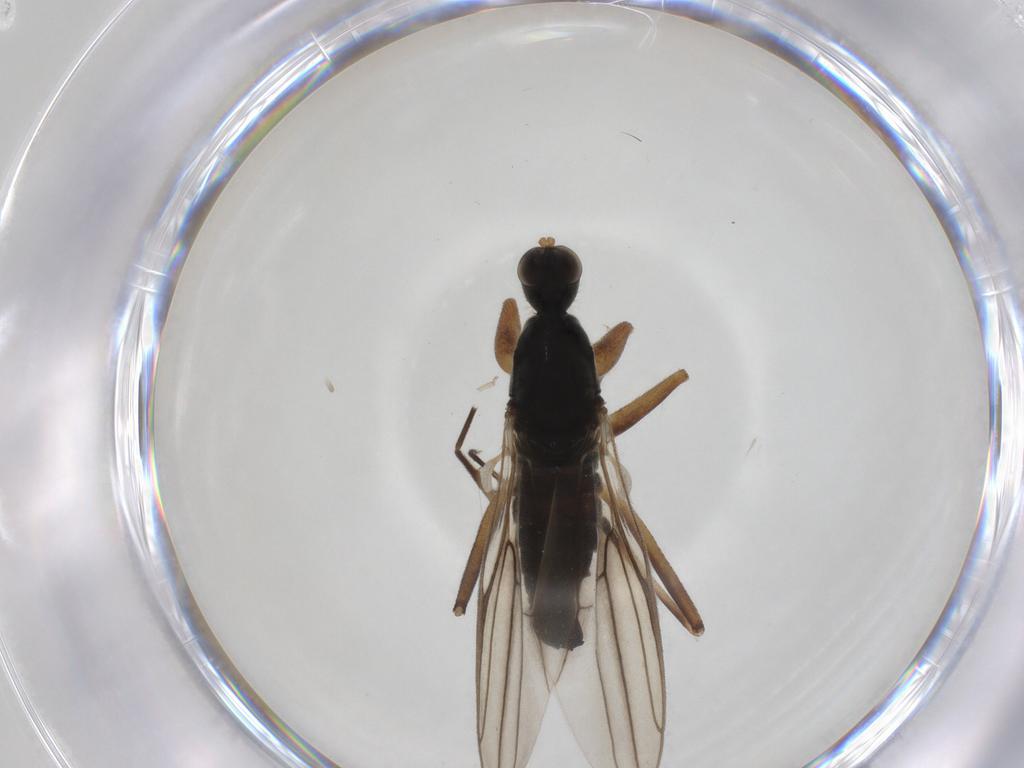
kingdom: Animalia
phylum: Arthropoda
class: Insecta
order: Diptera
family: Hybotidae
